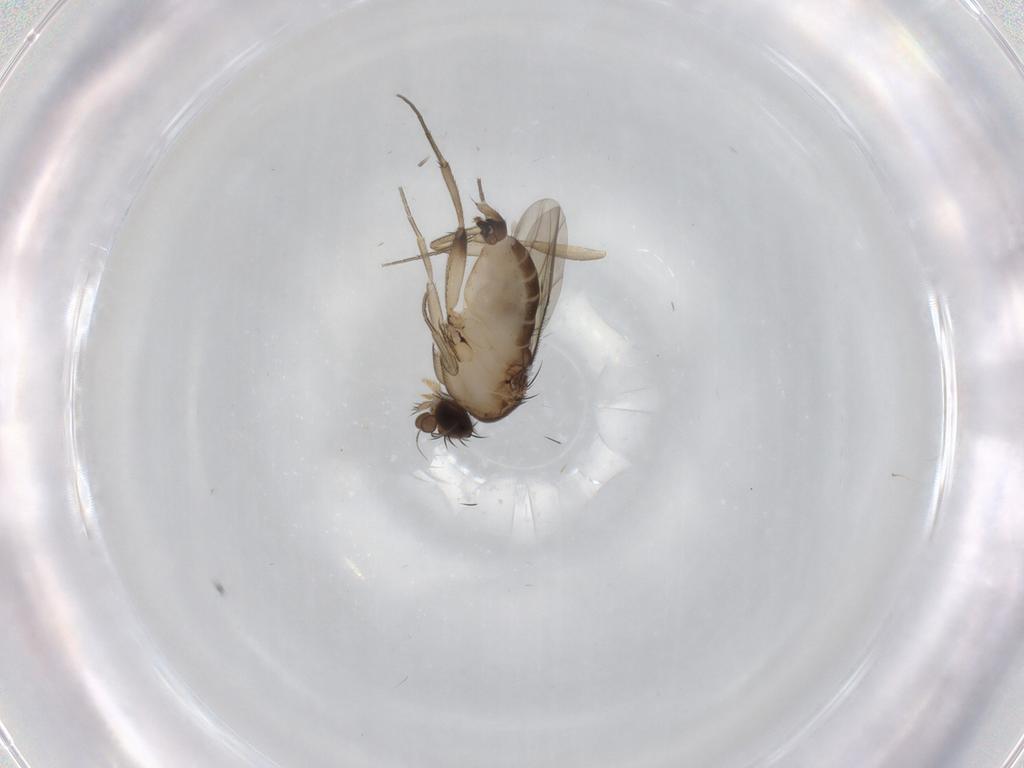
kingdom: Animalia
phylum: Arthropoda
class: Insecta
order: Diptera
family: Phoridae
